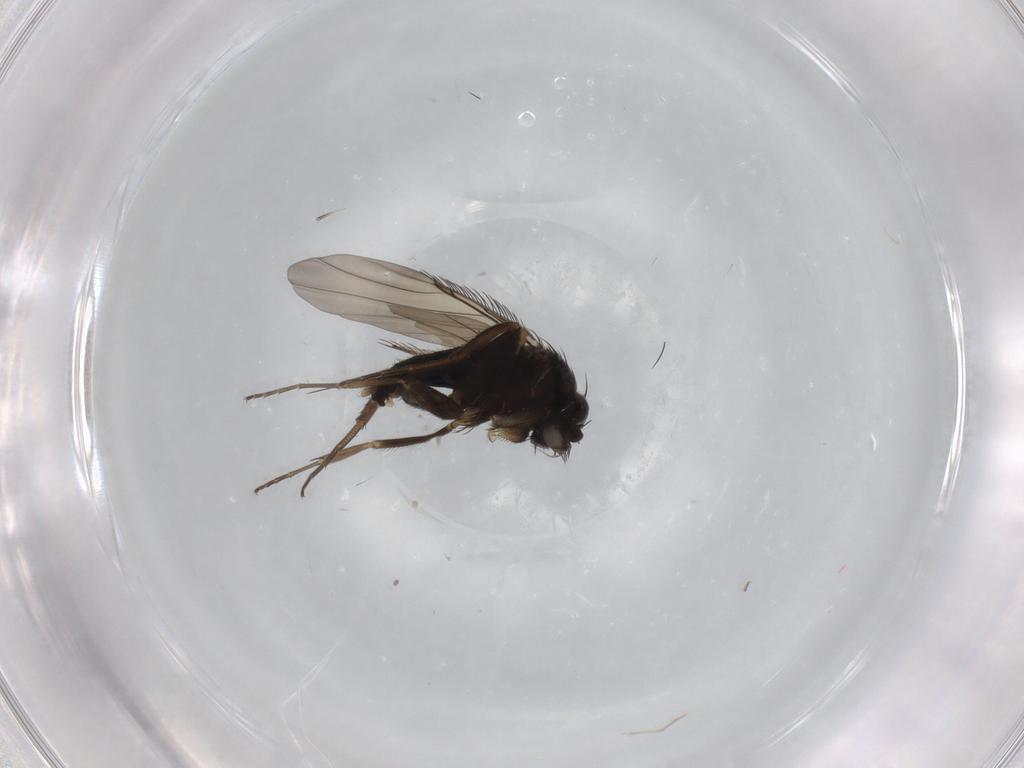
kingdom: Animalia
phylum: Arthropoda
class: Insecta
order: Diptera
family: Phoridae
